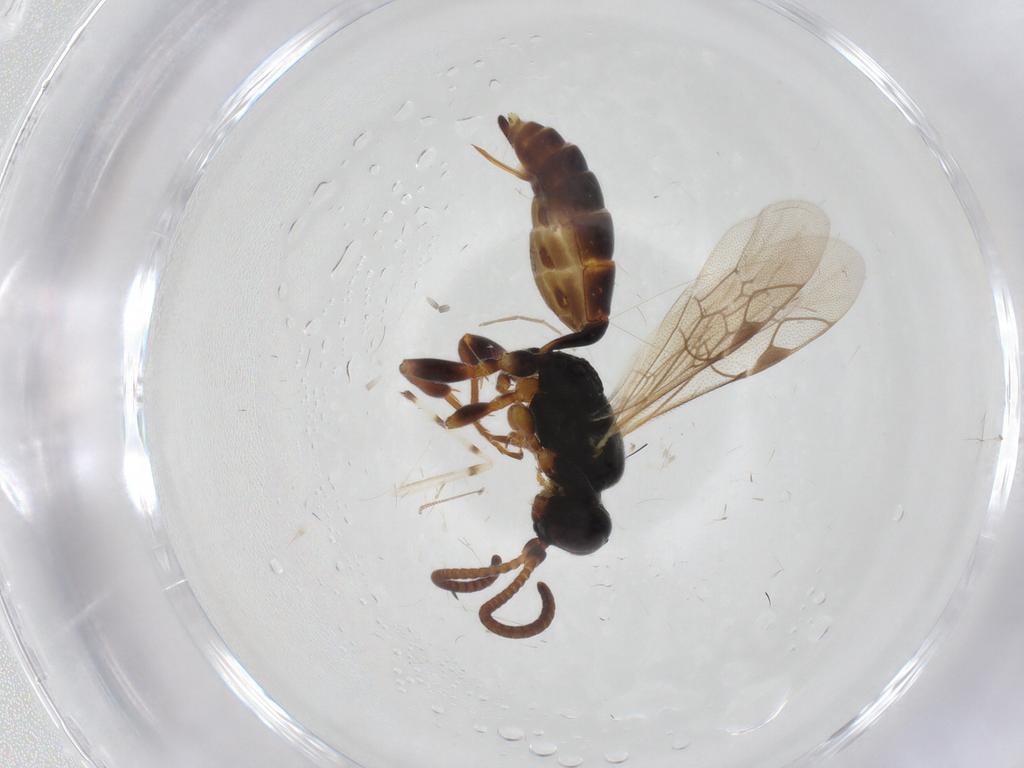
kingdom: Animalia
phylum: Arthropoda
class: Insecta
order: Hymenoptera
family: Ichneumonidae
